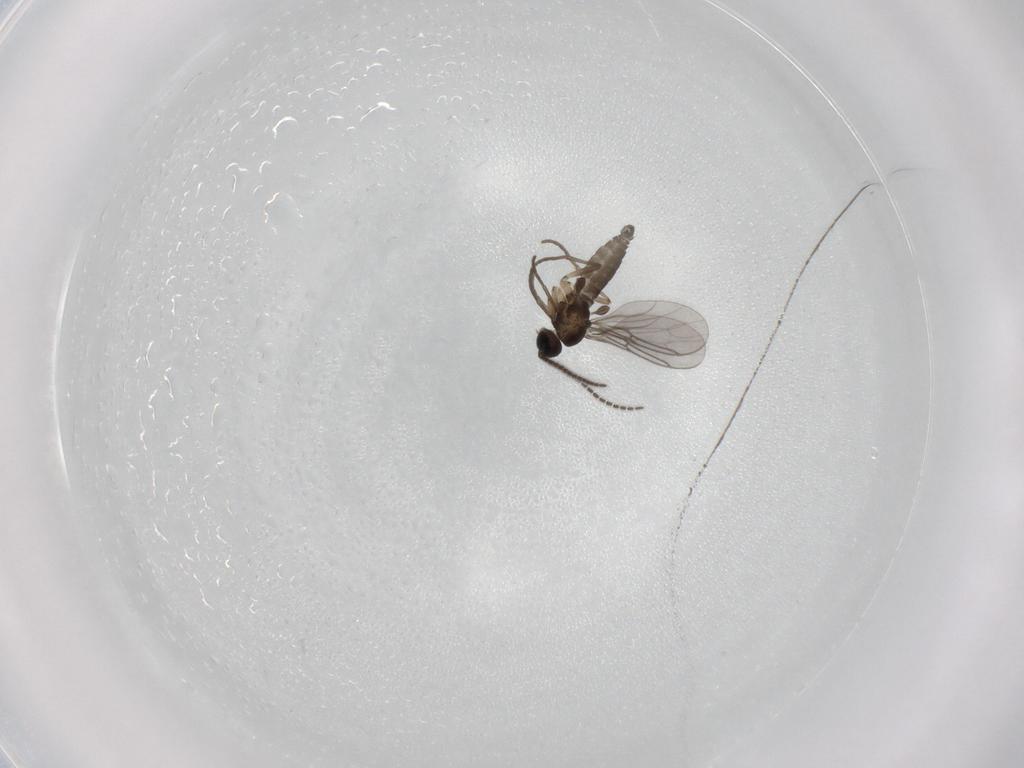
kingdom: Animalia
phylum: Arthropoda
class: Insecta
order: Diptera
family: Sciaridae
